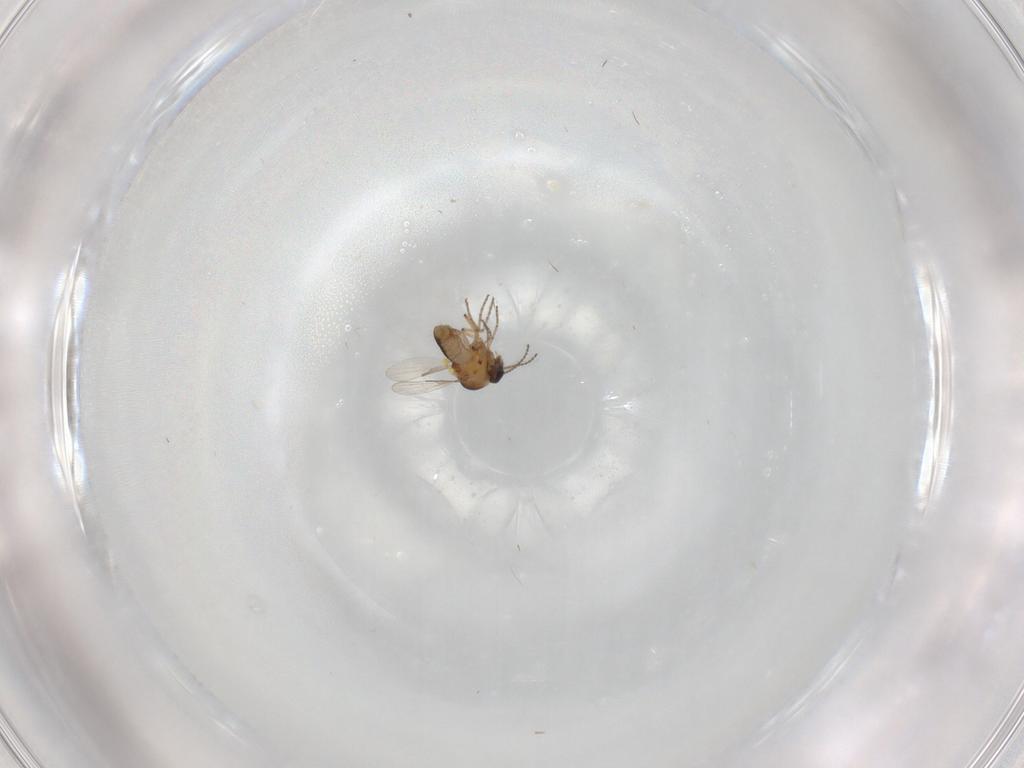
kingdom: Animalia
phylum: Arthropoda
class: Insecta
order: Diptera
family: Ceratopogonidae
